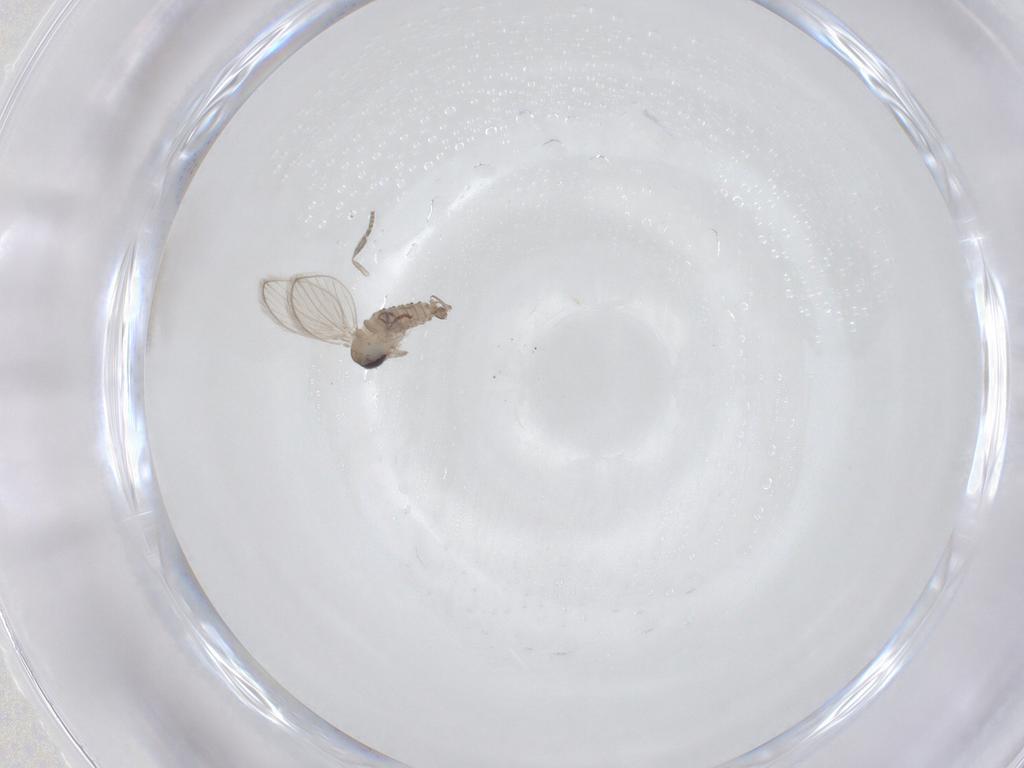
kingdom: Animalia
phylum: Arthropoda
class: Insecta
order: Diptera
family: Psychodidae
